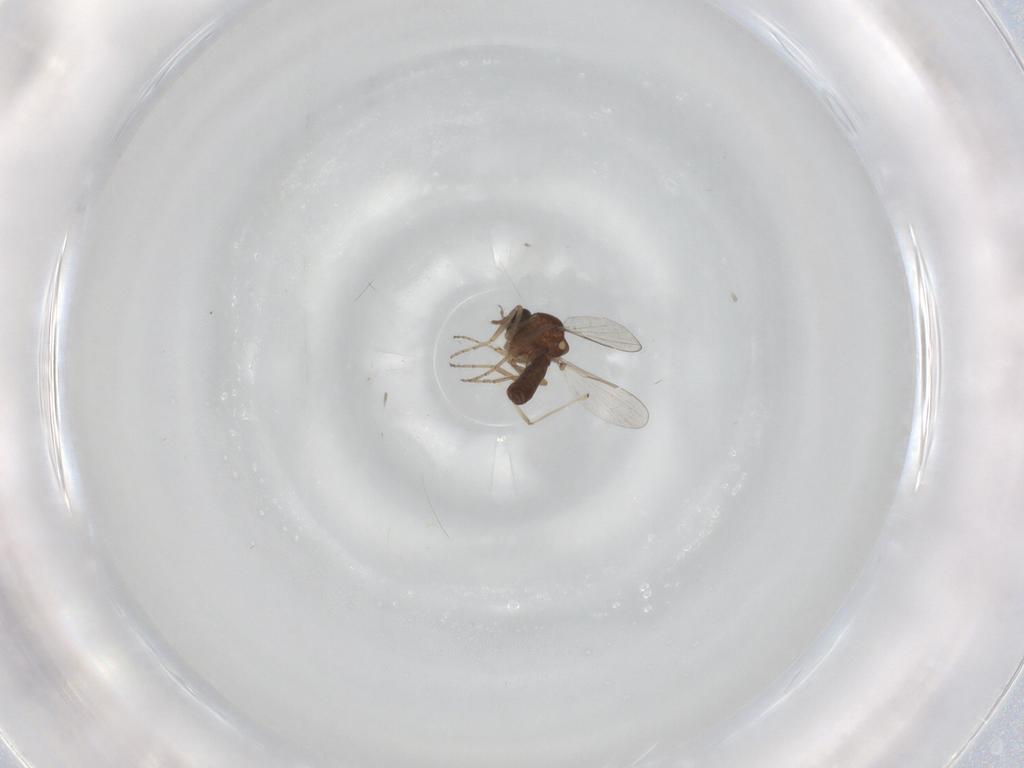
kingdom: Animalia
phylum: Arthropoda
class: Insecta
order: Diptera
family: Ceratopogonidae
